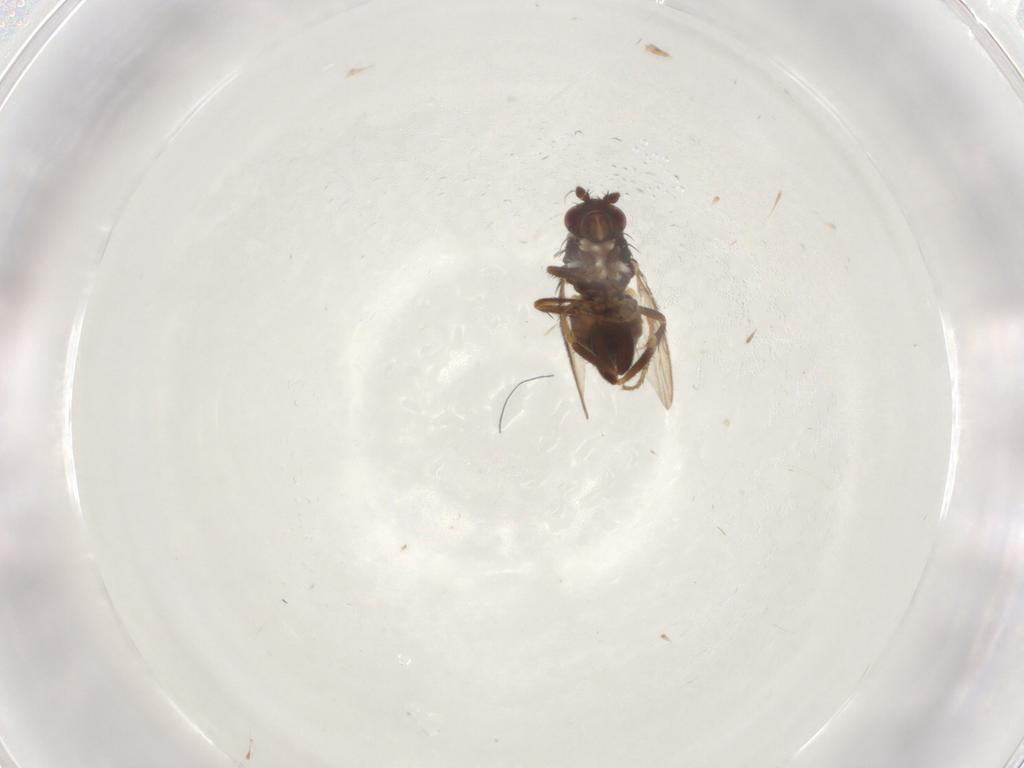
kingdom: Animalia
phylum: Arthropoda
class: Insecta
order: Diptera
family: Sphaeroceridae
